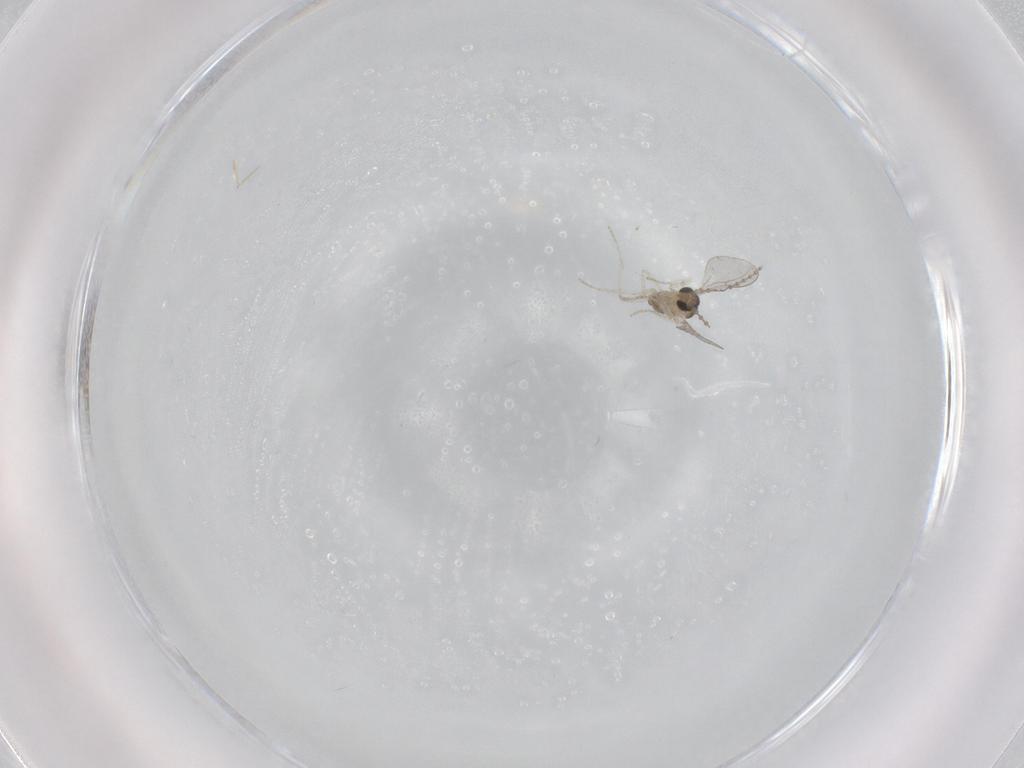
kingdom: Animalia
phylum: Arthropoda
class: Insecta
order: Diptera
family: Cecidomyiidae
